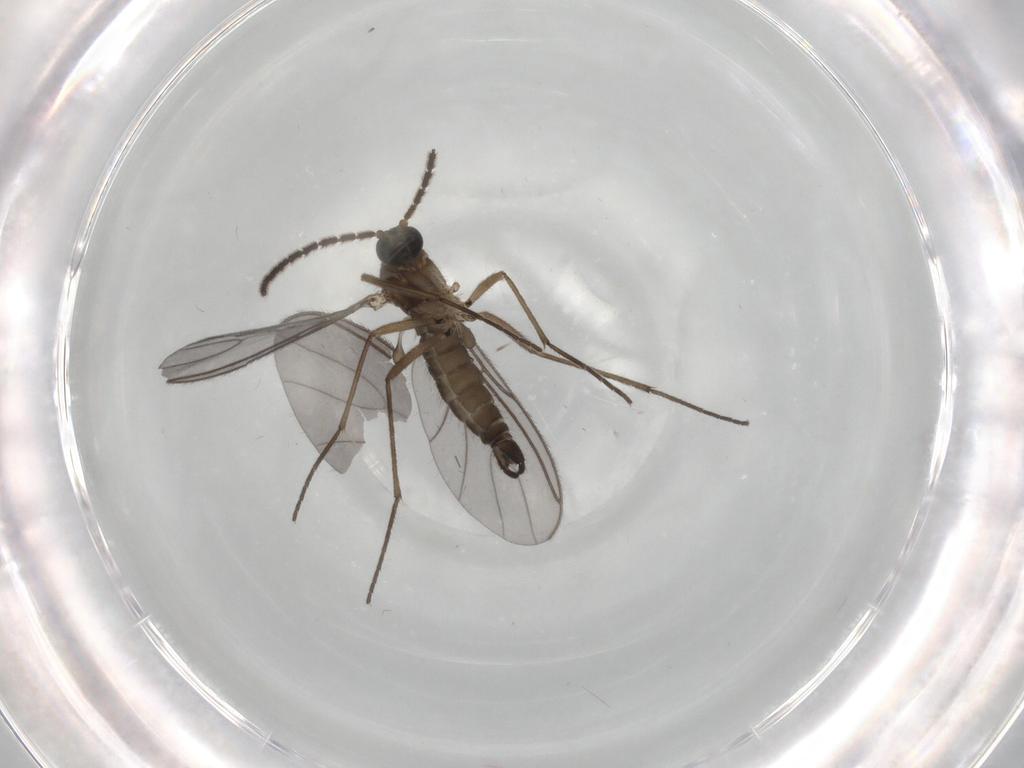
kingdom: Animalia
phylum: Arthropoda
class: Insecta
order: Diptera
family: Sciaridae
